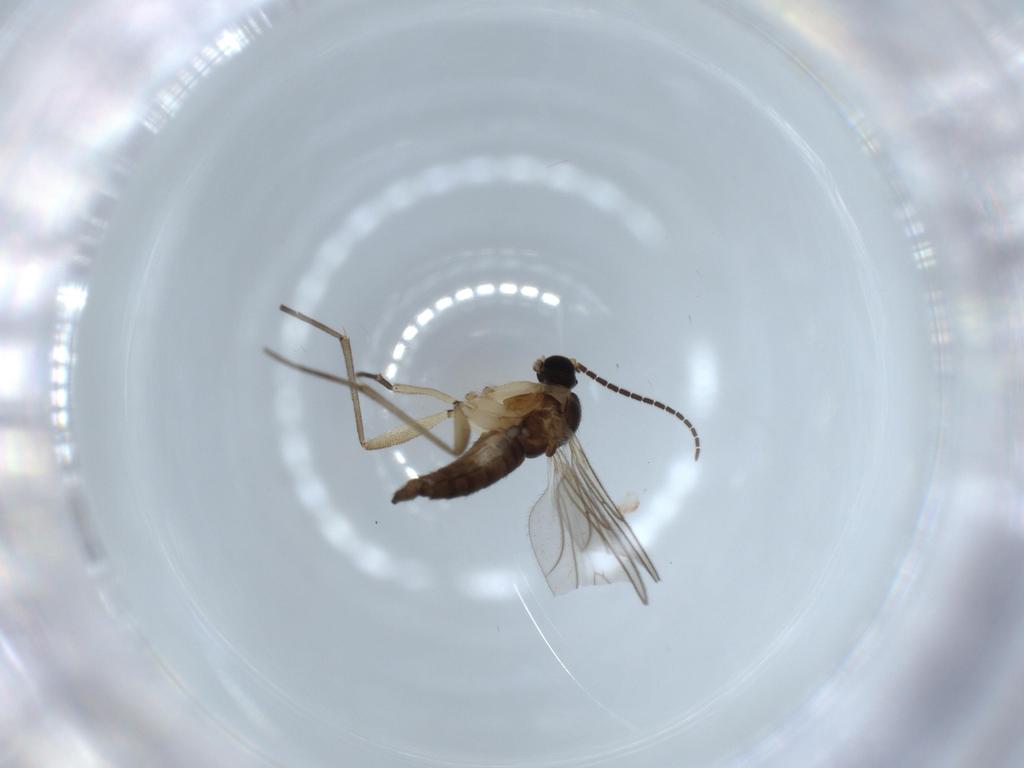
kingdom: Animalia
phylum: Arthropoda
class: Insecta
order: Diptera
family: Sciaridae
